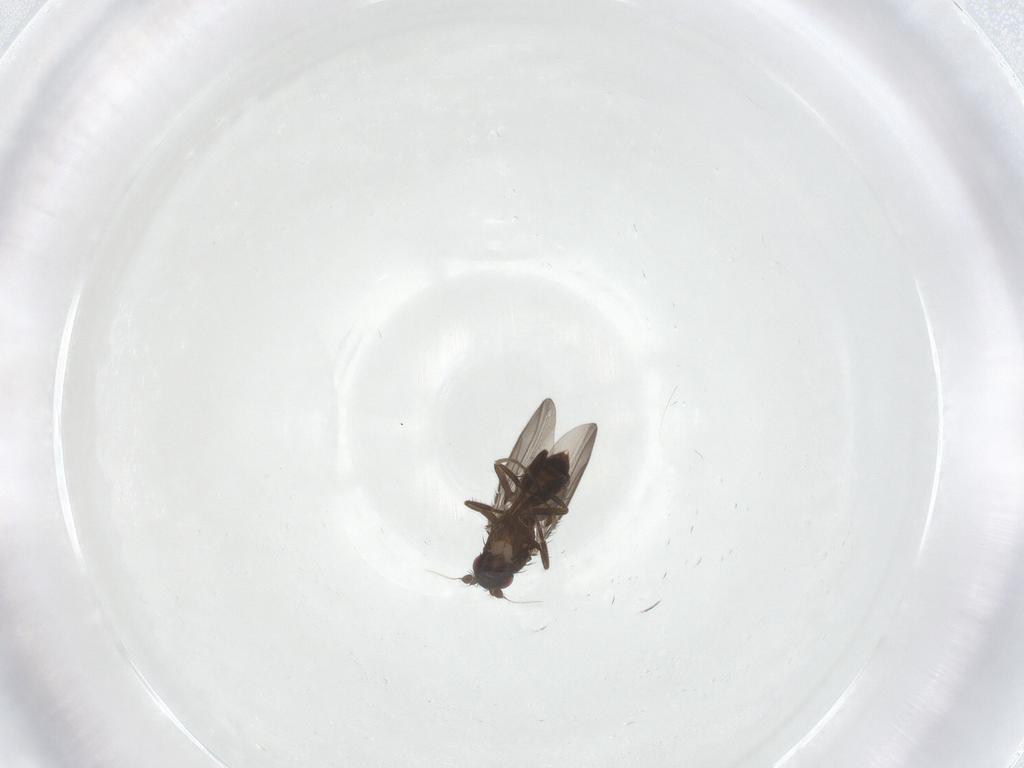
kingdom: Animalia
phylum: Arthropoda
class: Insecta
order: Diptera
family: Sphaeroceridae
